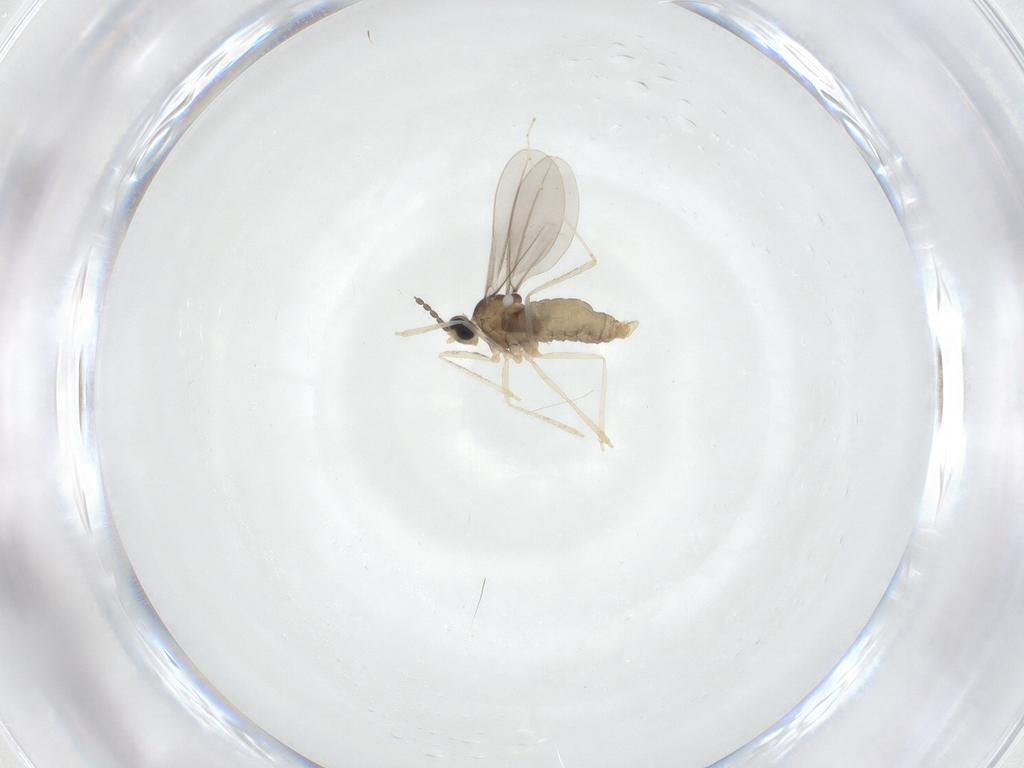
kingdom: Animalia
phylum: Arthropoda
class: Insecta
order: Diptera
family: Cecidomyiidae
